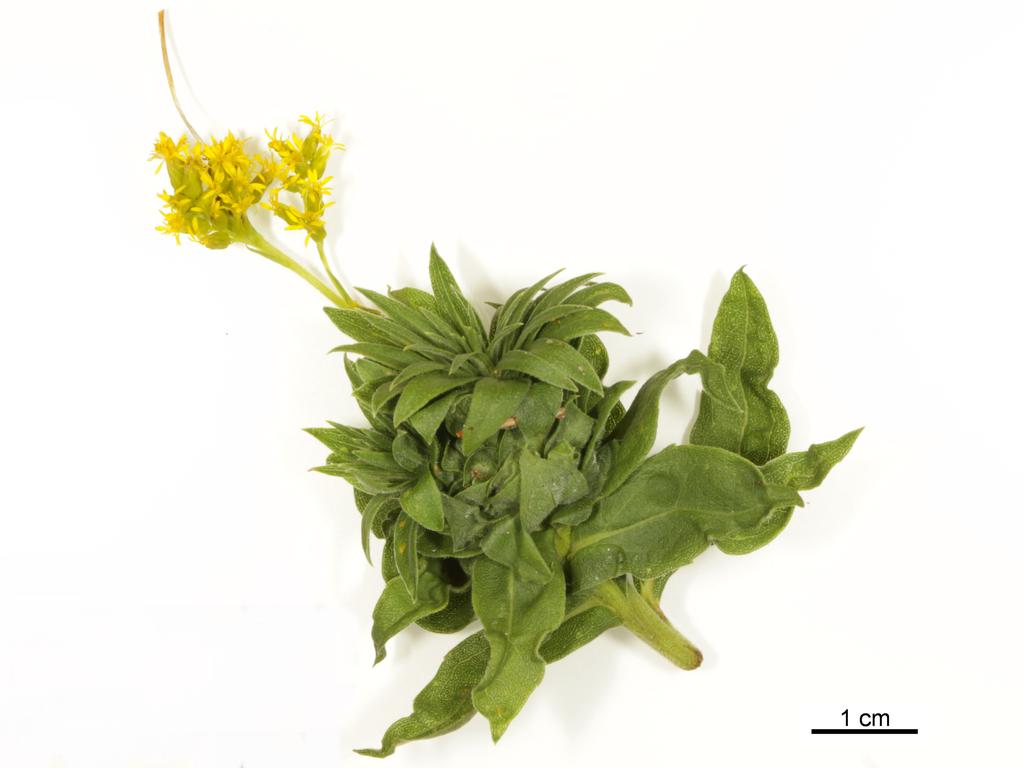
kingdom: Animalia
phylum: Arthropoda
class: Insecta
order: Hymenoptera
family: Eulophidae
